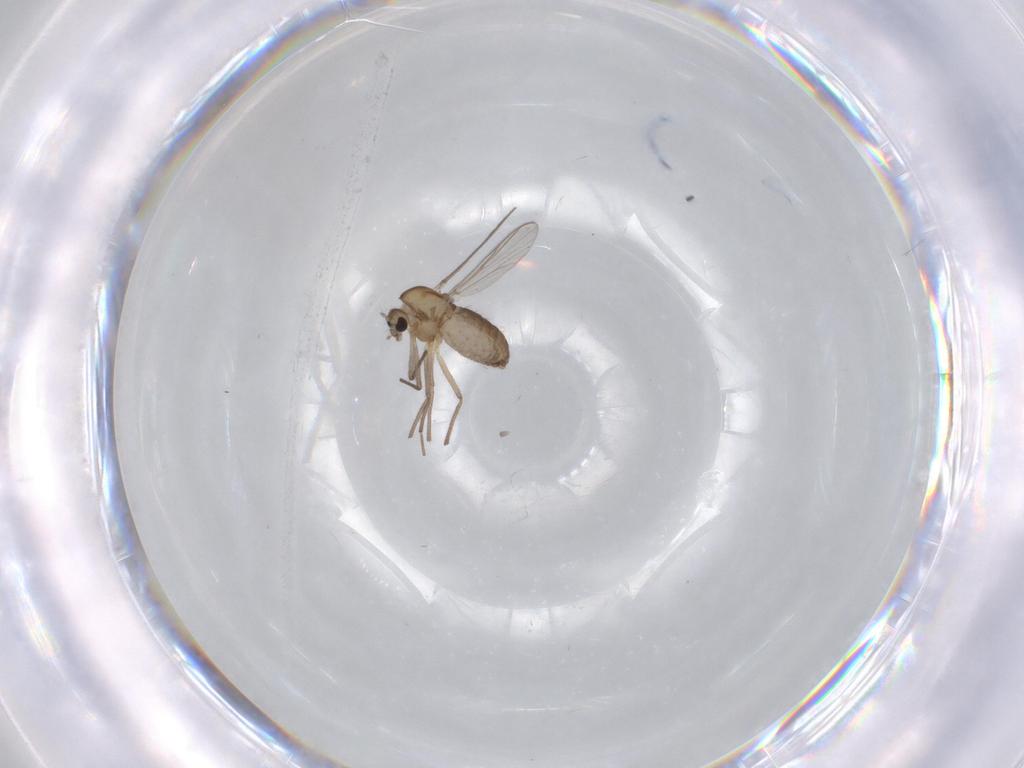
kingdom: Animalia
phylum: Arthropoda
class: Insecta
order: Diptera
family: Chironomidae
